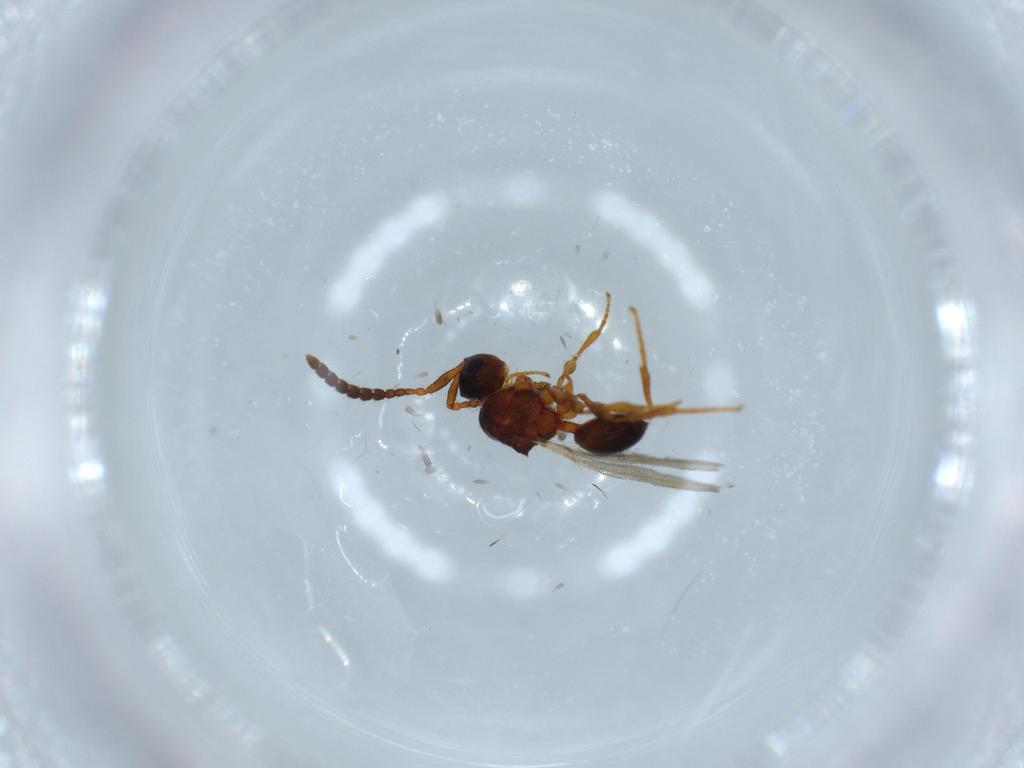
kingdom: Animalia
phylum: Arthropoda
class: Insecta
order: Hymenoptera
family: Diapriidae
